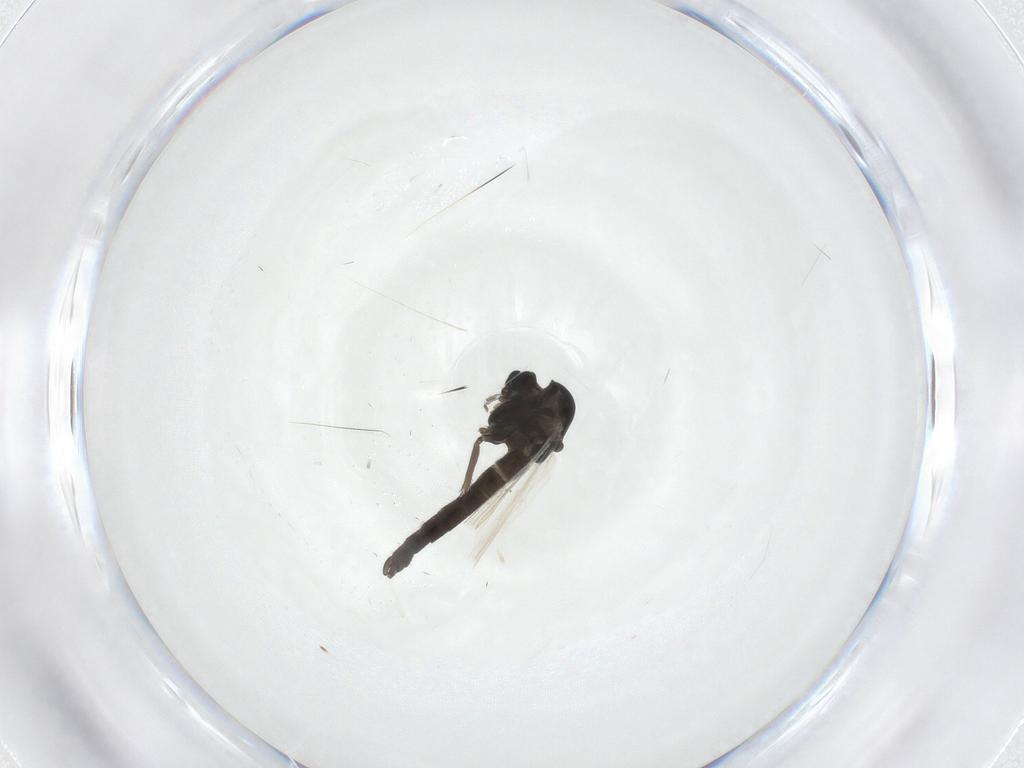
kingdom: Animalia
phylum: Arthropoda
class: Insecta
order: Diptera
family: Chironomidae
